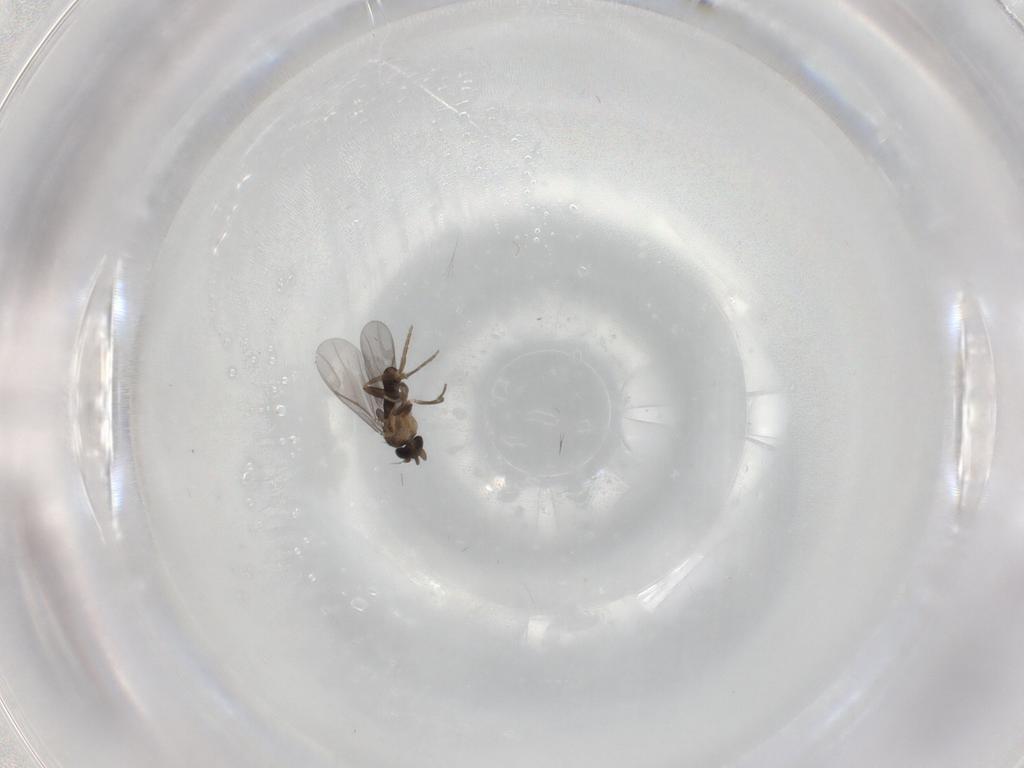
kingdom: Animalia
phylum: Arthropoda
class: Insecta
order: Diptera
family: Phoridae
